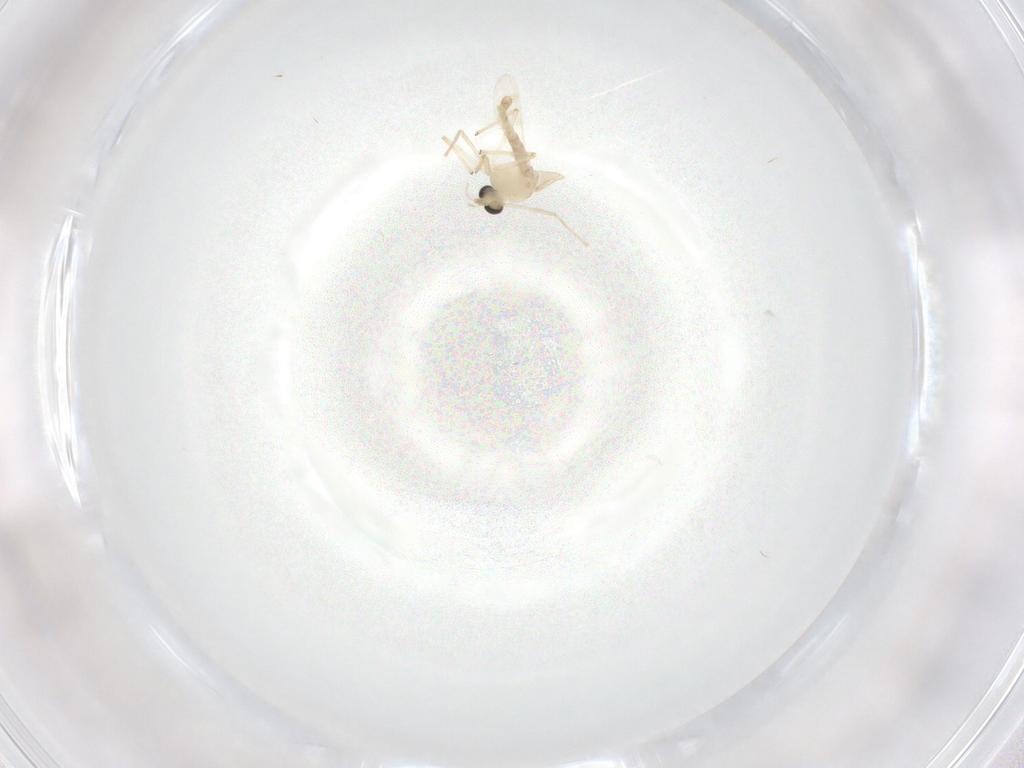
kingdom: Animalia
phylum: Arthropoda
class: Insecta
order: Diptera
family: Chironomidae
